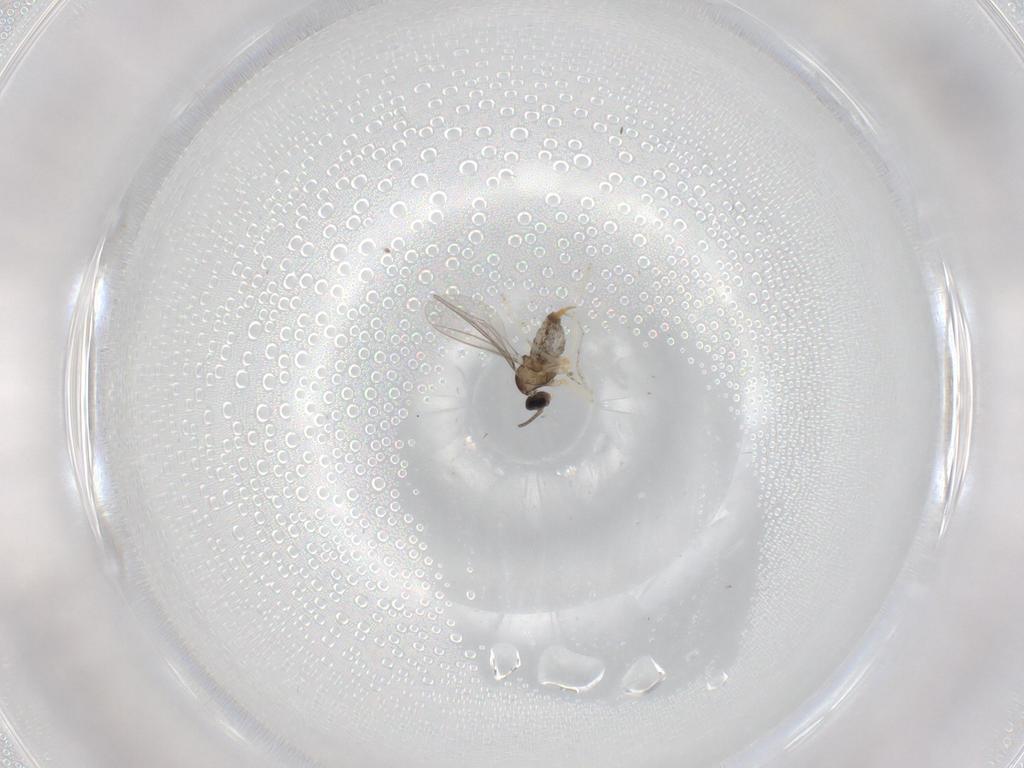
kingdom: Animalia
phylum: Arthropoda
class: Insecta
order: Diptera
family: Cecidomyiidae
